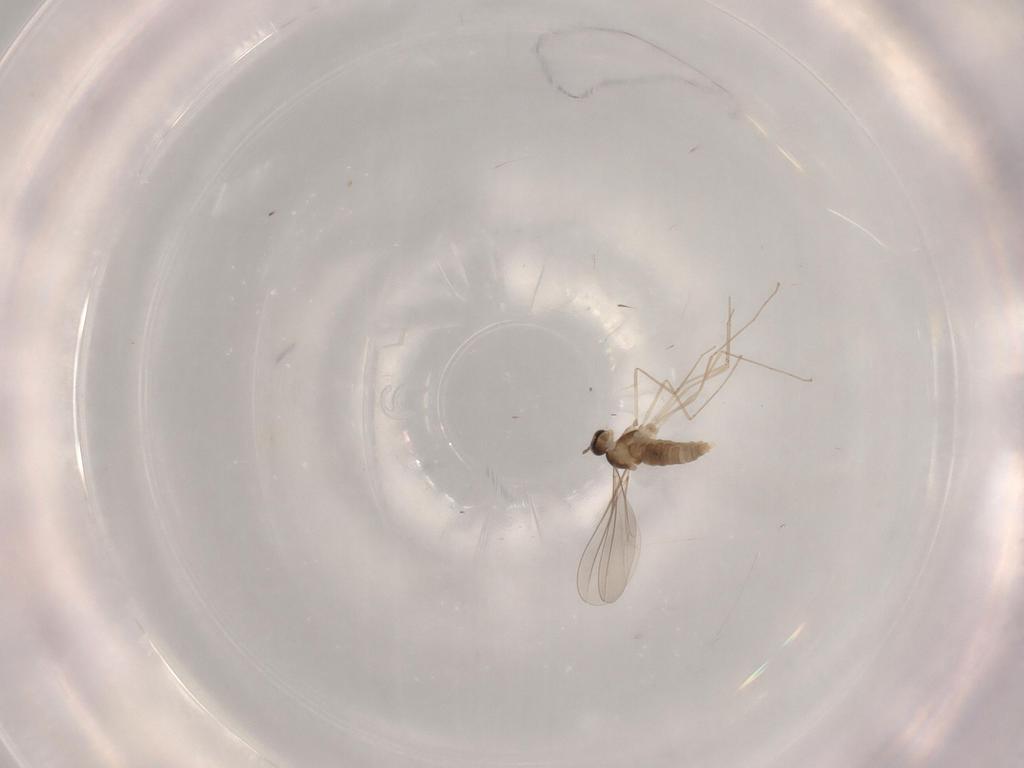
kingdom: Animalia
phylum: Arthropoda
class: Insecta
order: Diptera
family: Cecidomyiidae
